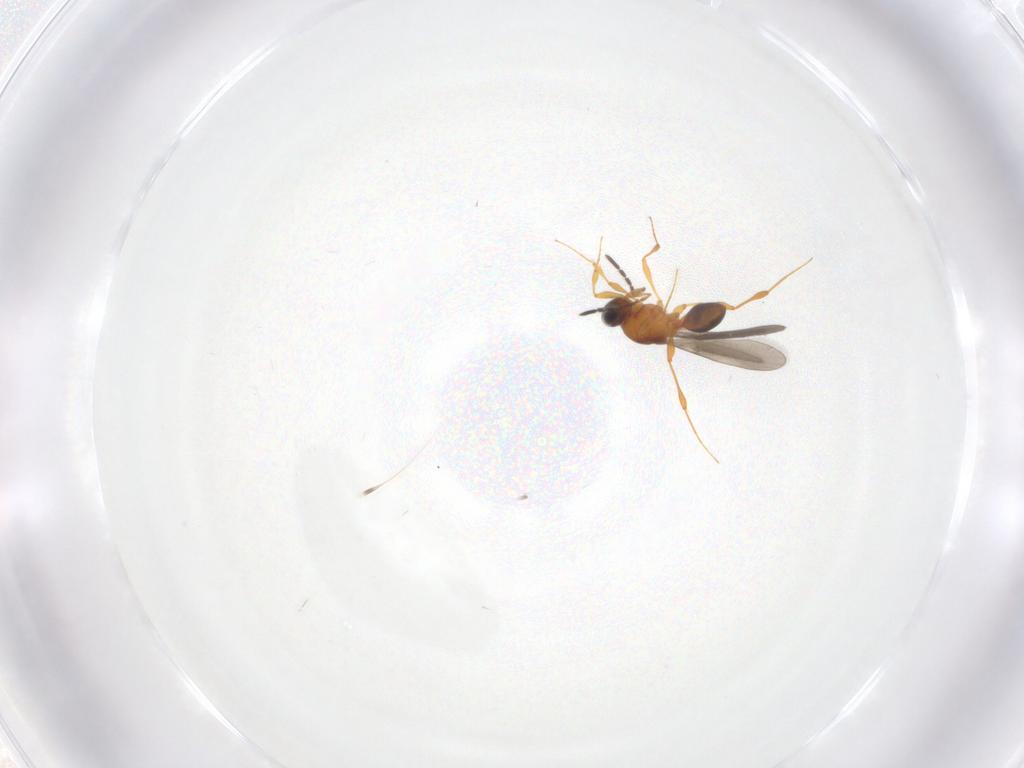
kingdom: Animalia
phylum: Arthropoda
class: Insecta
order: Hymenoptera
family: Platygastridae
